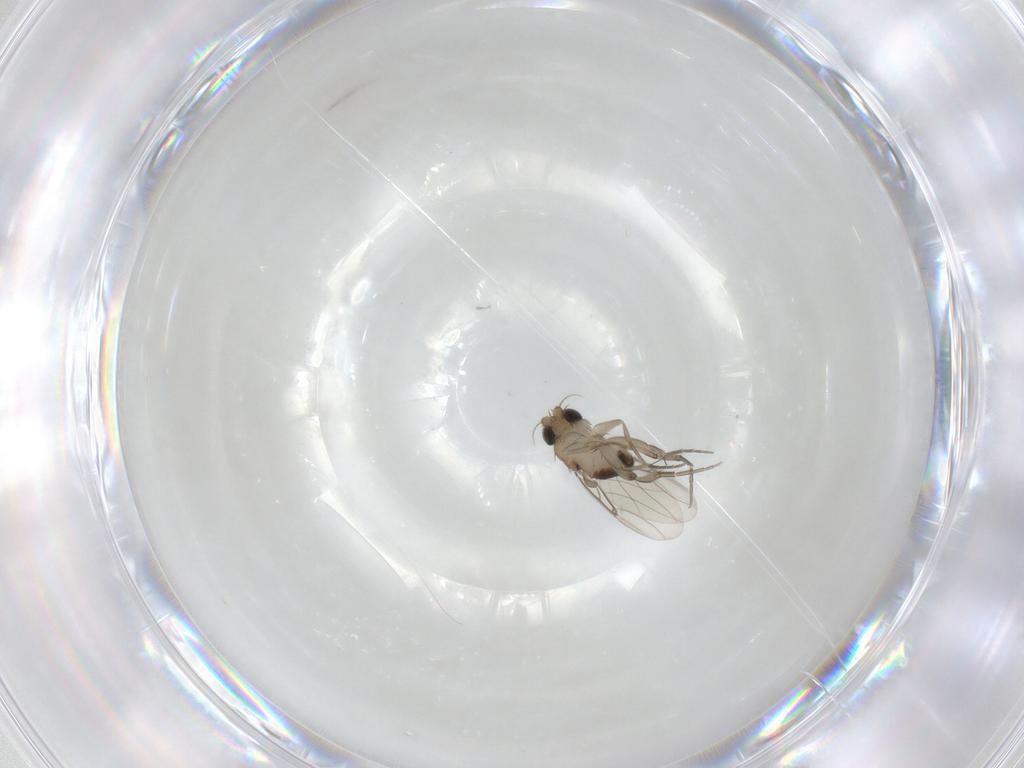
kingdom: Animalia
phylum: Arthropoda
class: Insecta
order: Diptera
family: Phoridae
